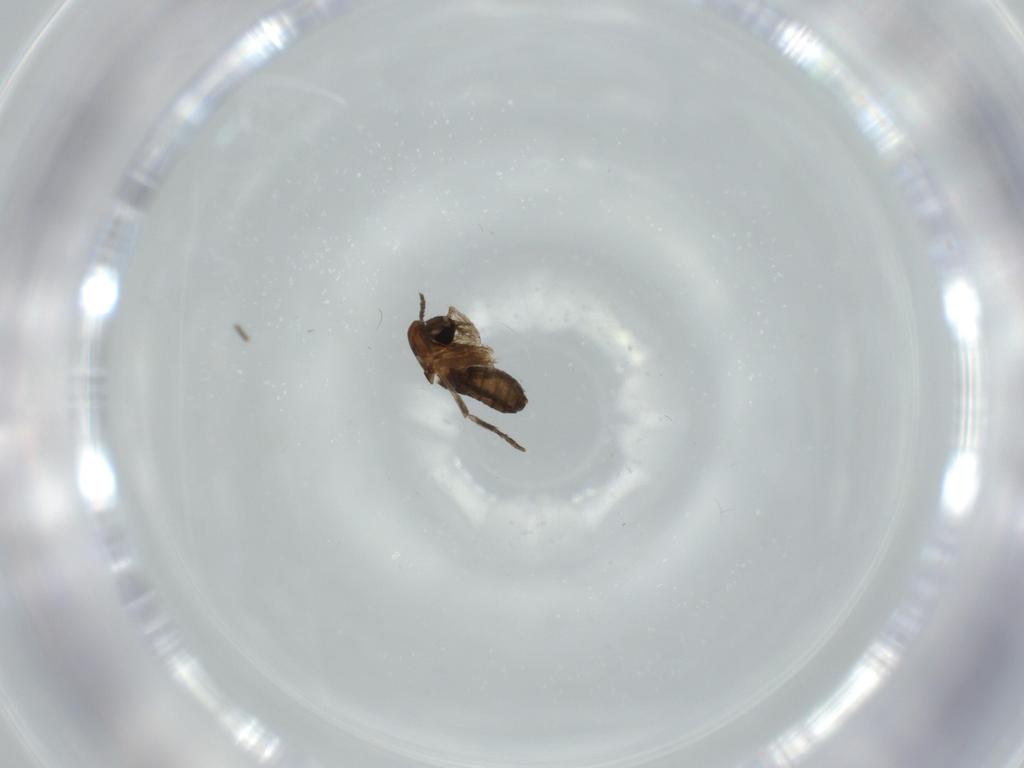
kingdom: Animalia
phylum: Arthropoda
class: Insecta
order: Diptera
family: Psychodidae
